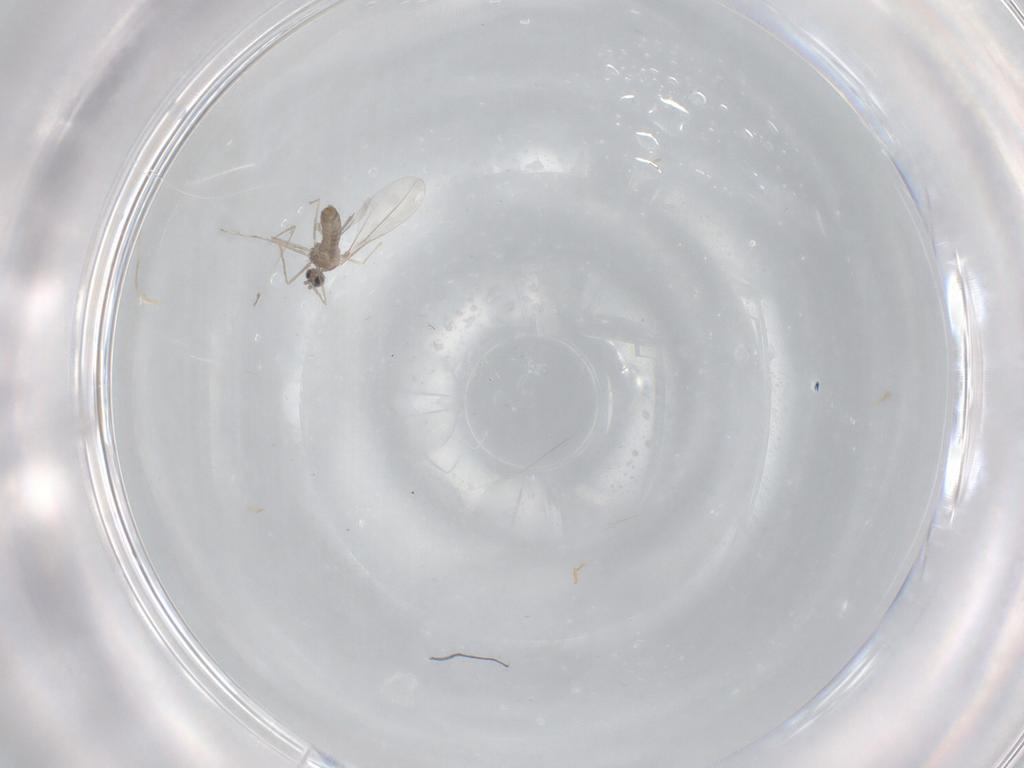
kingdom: Animalia
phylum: Arthropoda
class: Insecta
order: Diptera
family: Cecidomyiidae
